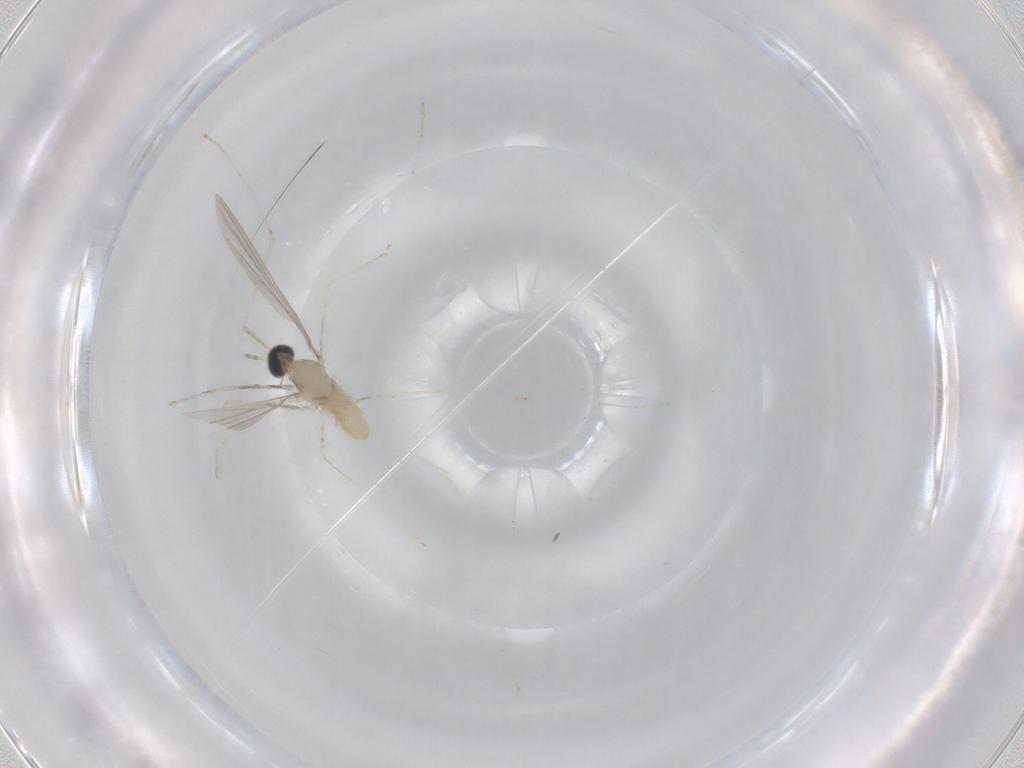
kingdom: Animalia
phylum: Arthropoda
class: Insecta
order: Diptera
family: Cecidomyiidae
